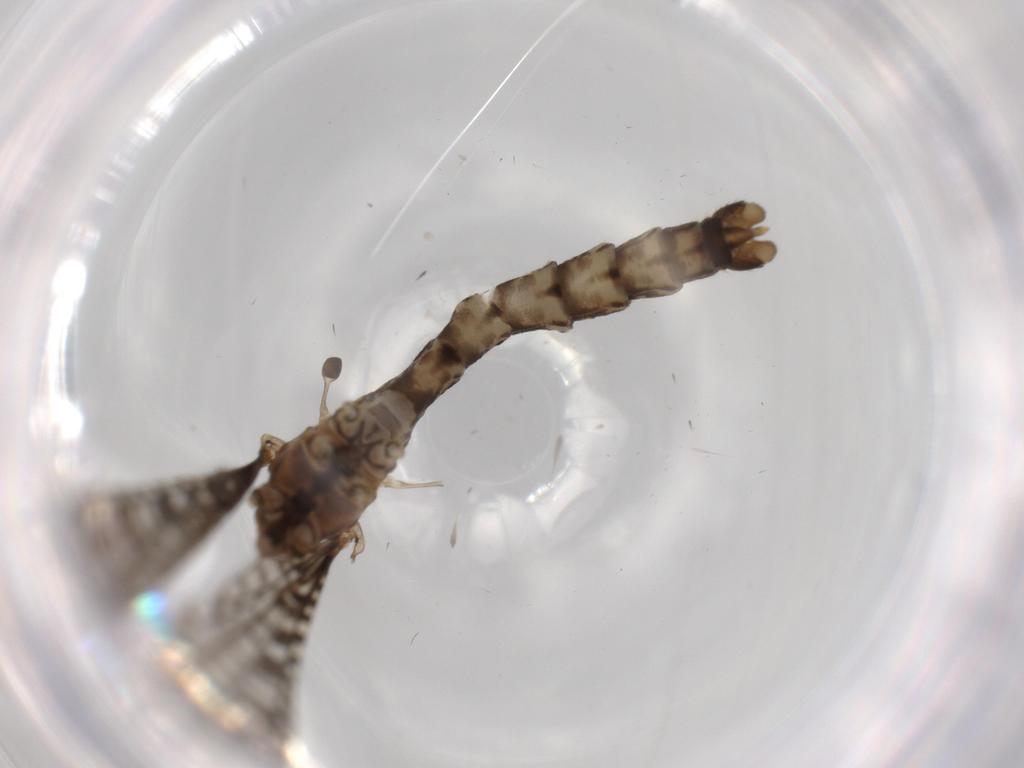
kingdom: Animalia
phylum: Arthropoda
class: Insecta
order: Diptera
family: Limoniidae
